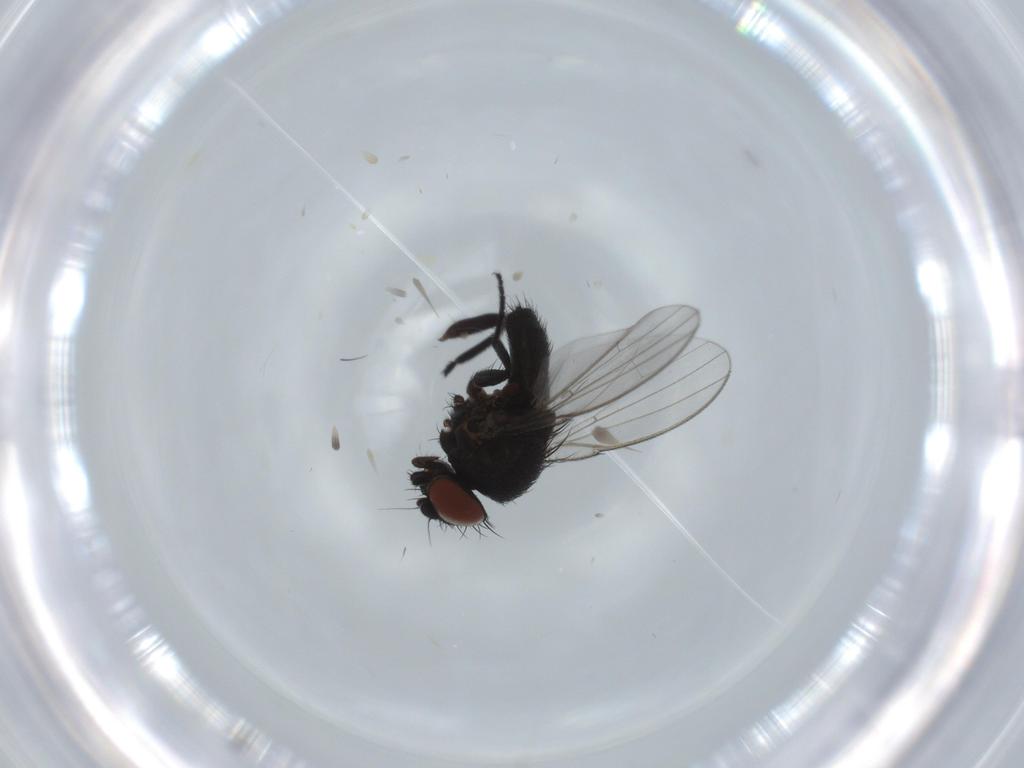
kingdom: Animalia
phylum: Arthropoda
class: Insecta
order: Diptera
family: Milichiidae
